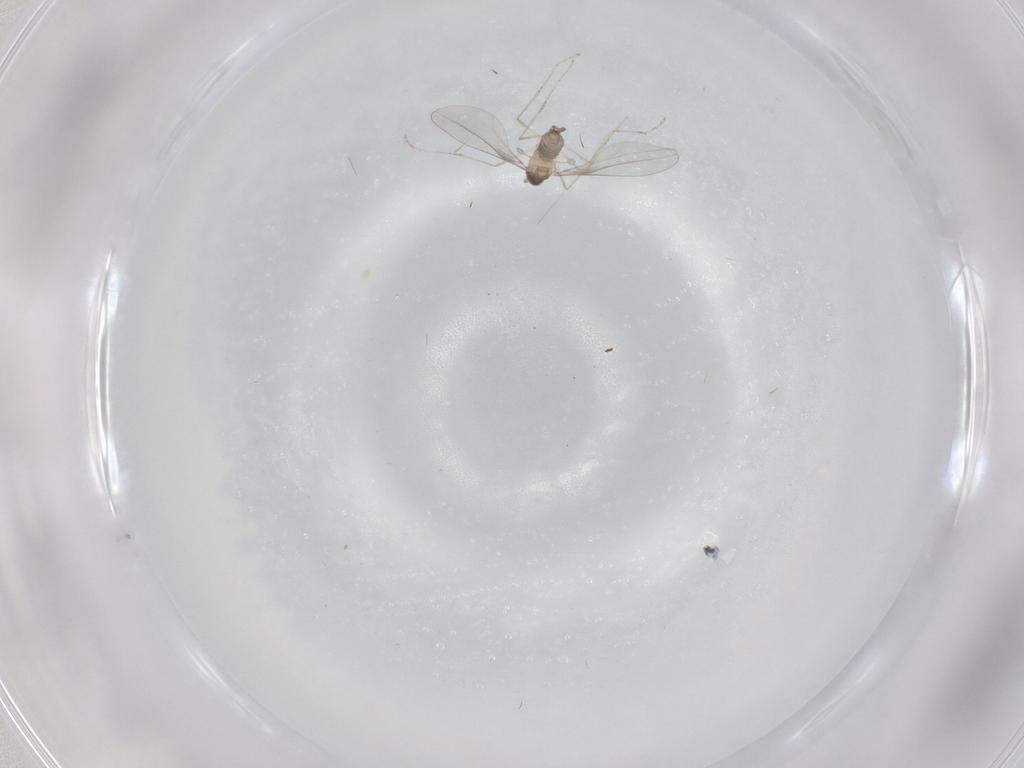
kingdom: Animalia
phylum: Arthropoda
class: Insecta
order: Diptera
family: Cecidomyiidae
